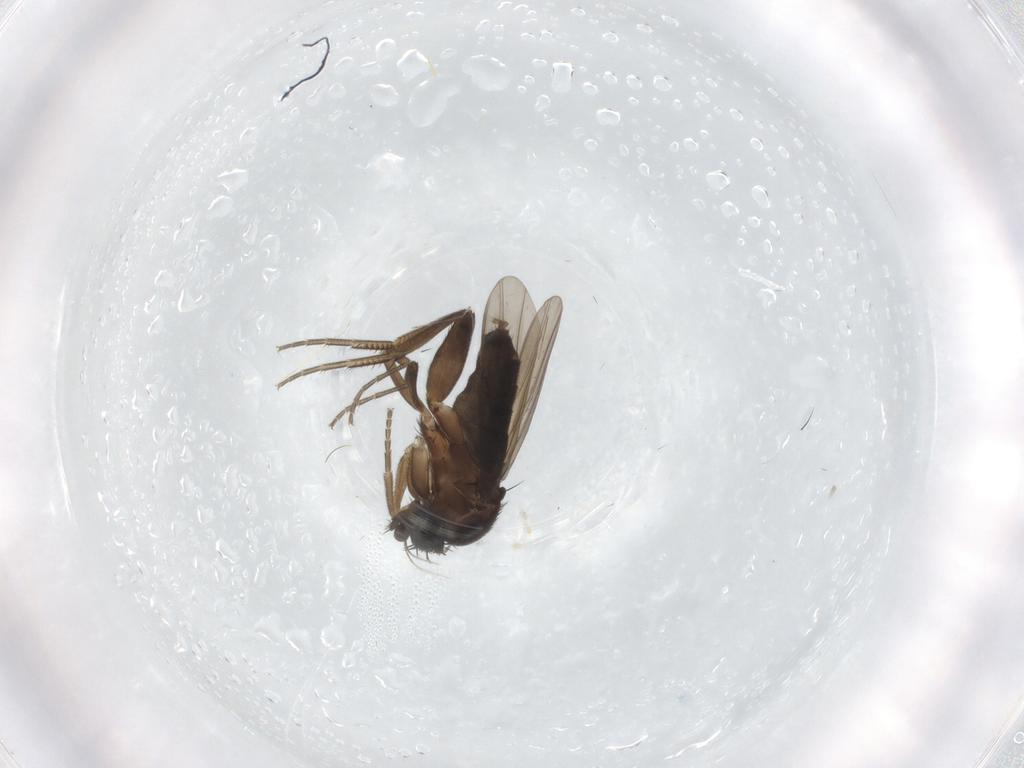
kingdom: Animalia
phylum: Arthropoda
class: Insecta
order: Diptera
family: Phoridae
